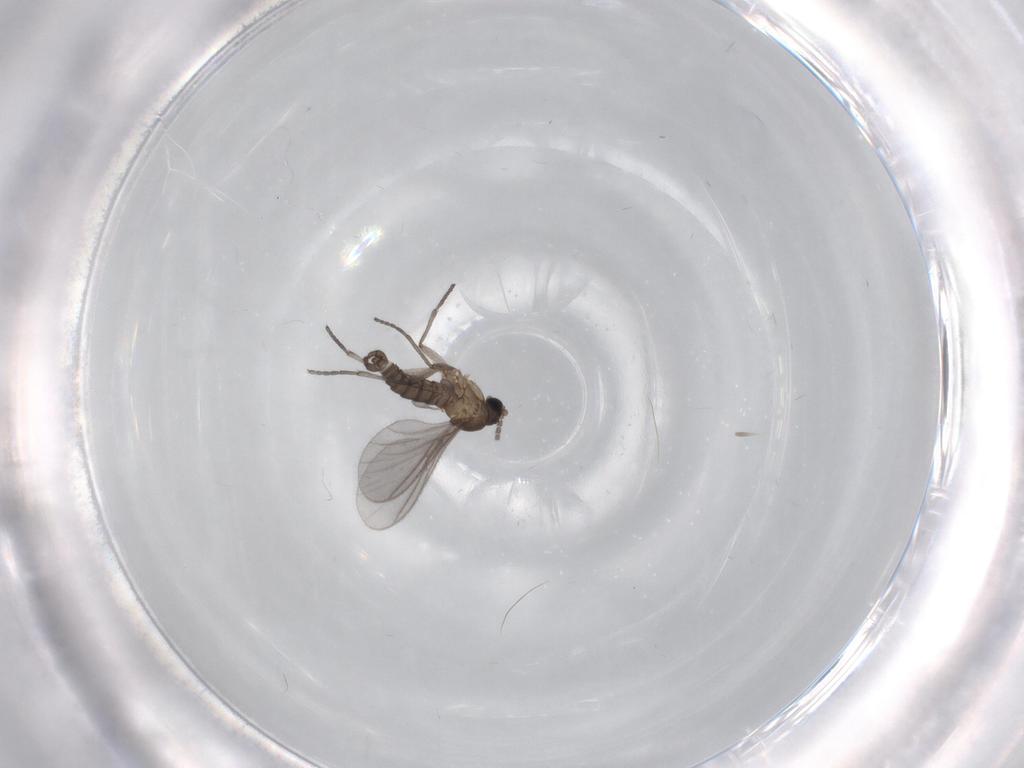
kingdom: Animalia
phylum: Arthropoda
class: Insecta
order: Diptera
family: Sciaridae
